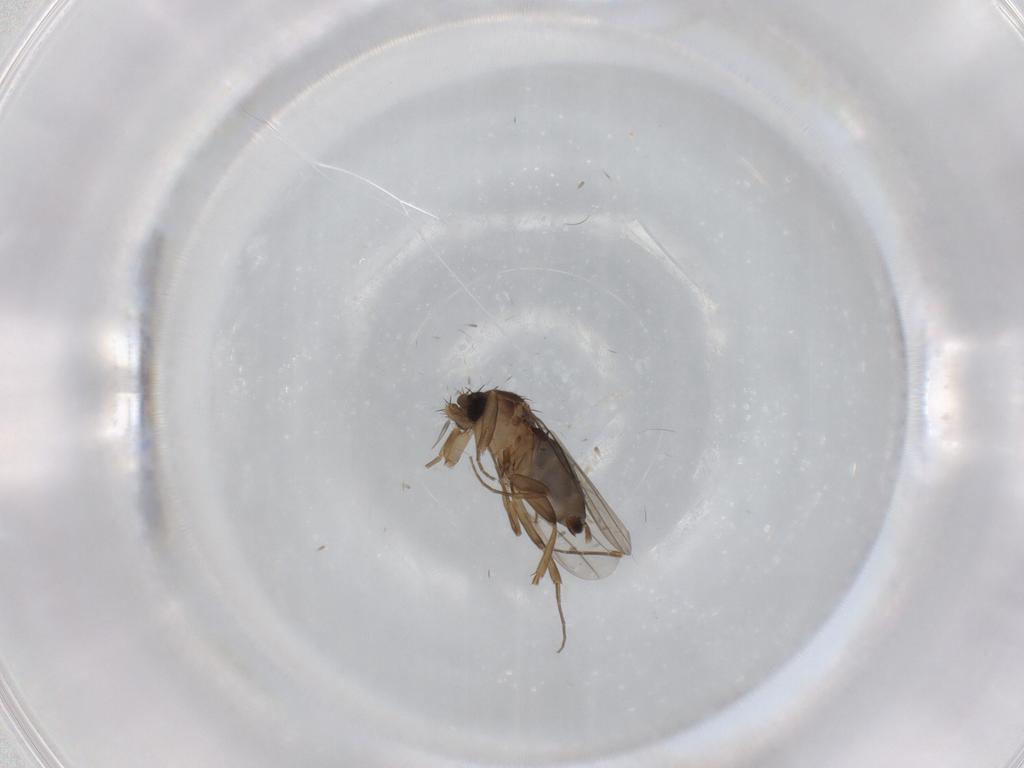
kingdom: Animalia
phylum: Arthropoda
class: Insecta
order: Diptera
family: Phoridae
